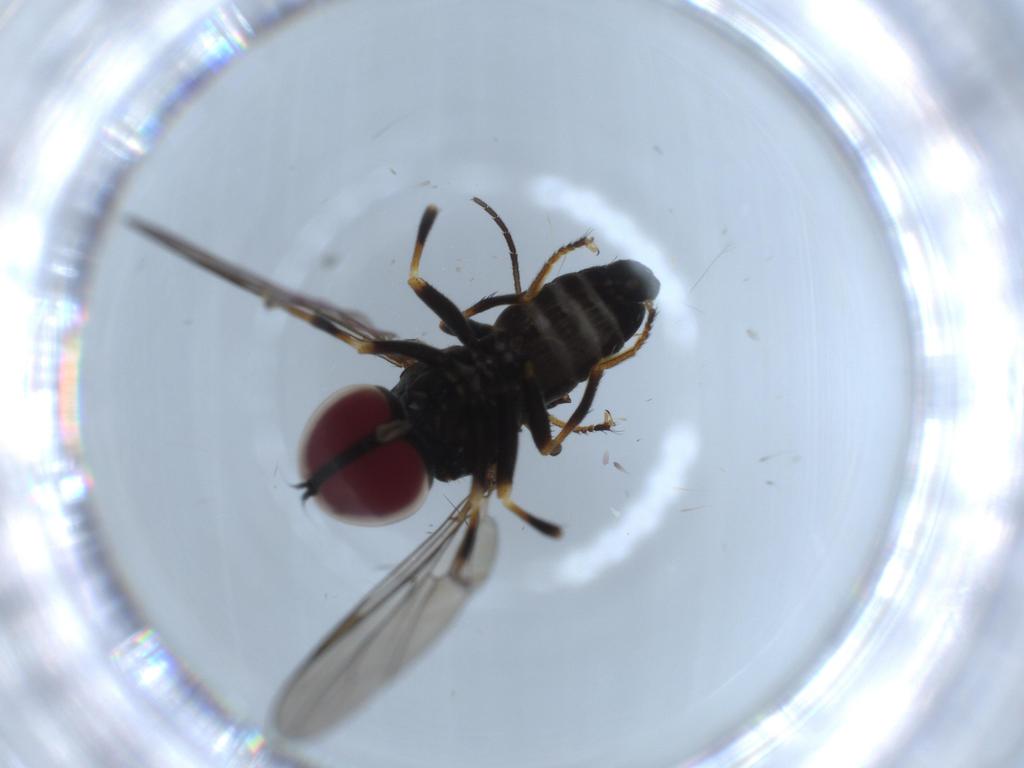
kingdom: Animalia
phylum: Arthropoda
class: Insecta
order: Diptera
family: Pipunculidae
